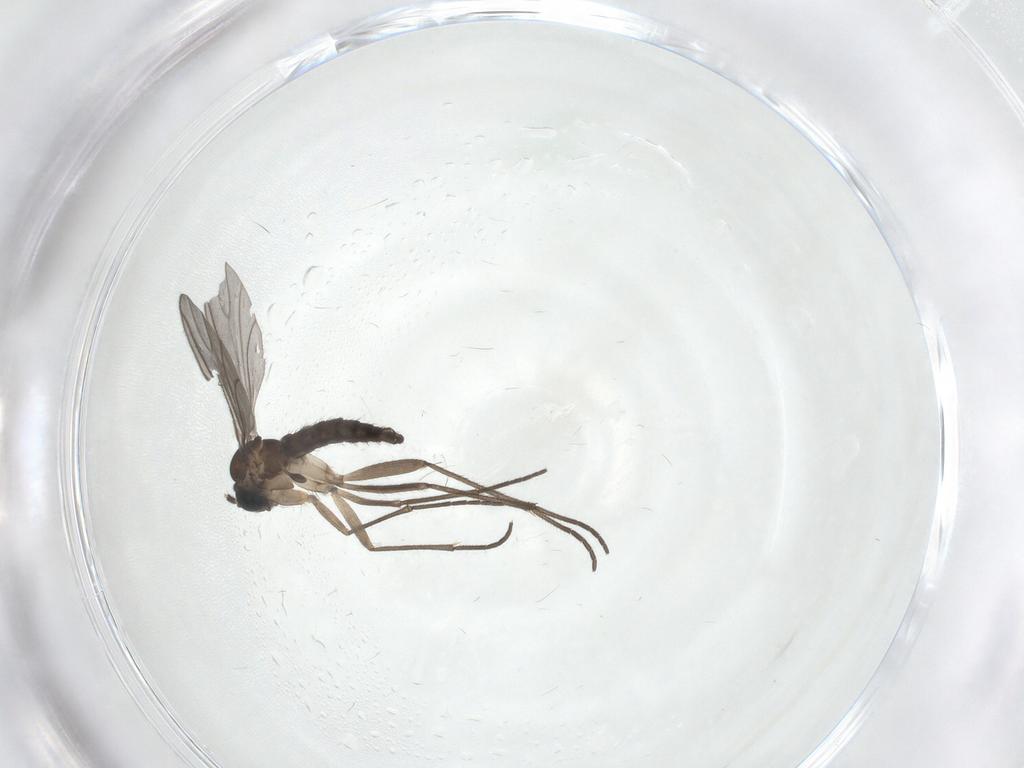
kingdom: Animalia
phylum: Arthropoda
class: Insecta
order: Diptera
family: Sciaridae
